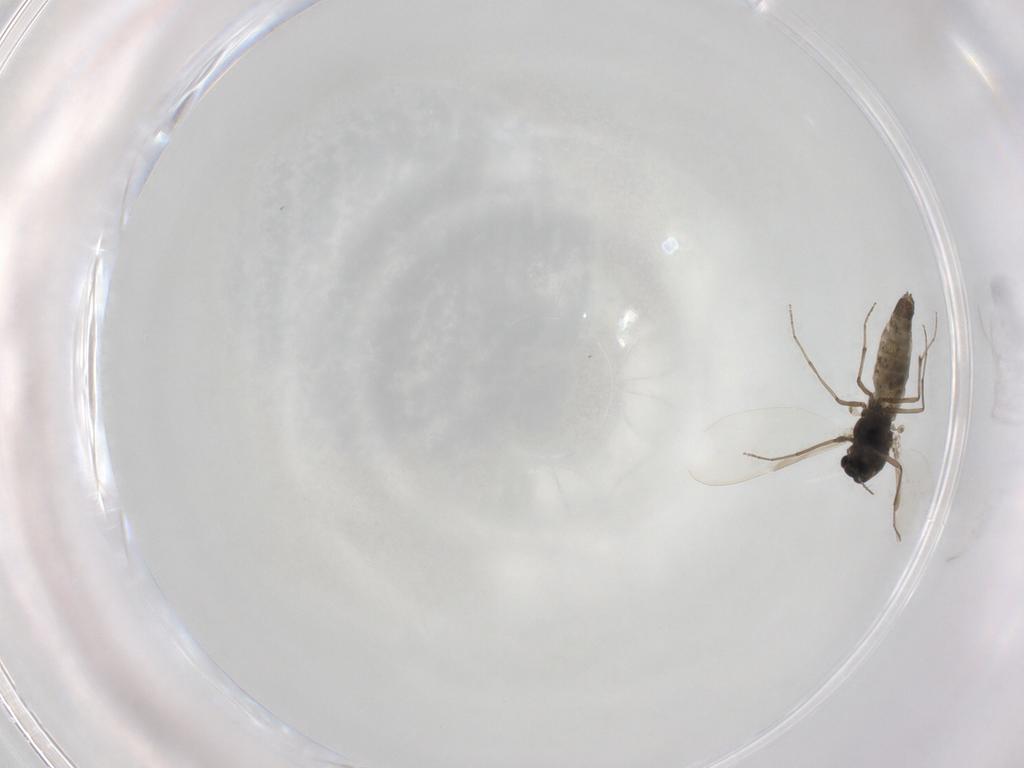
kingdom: Animalia
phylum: Arthropoda
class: Insecta
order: Diptera
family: Chironomidae
